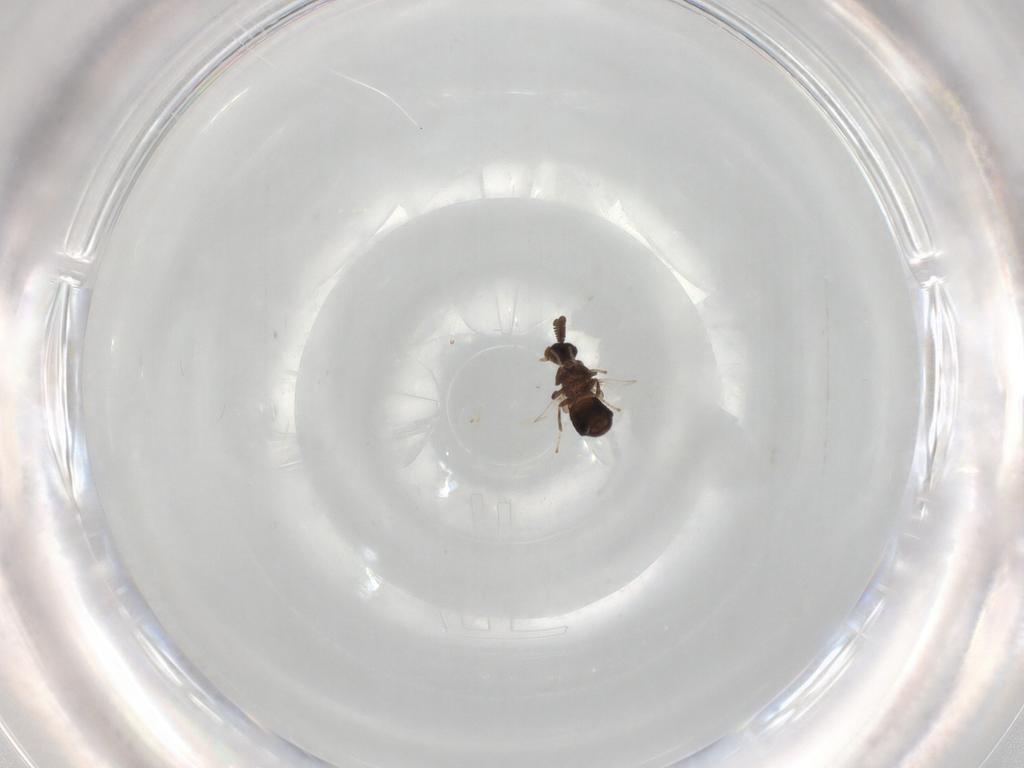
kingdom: Animalia
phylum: Arthropoda
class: Insecta
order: Diptera
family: Scatopsidae
